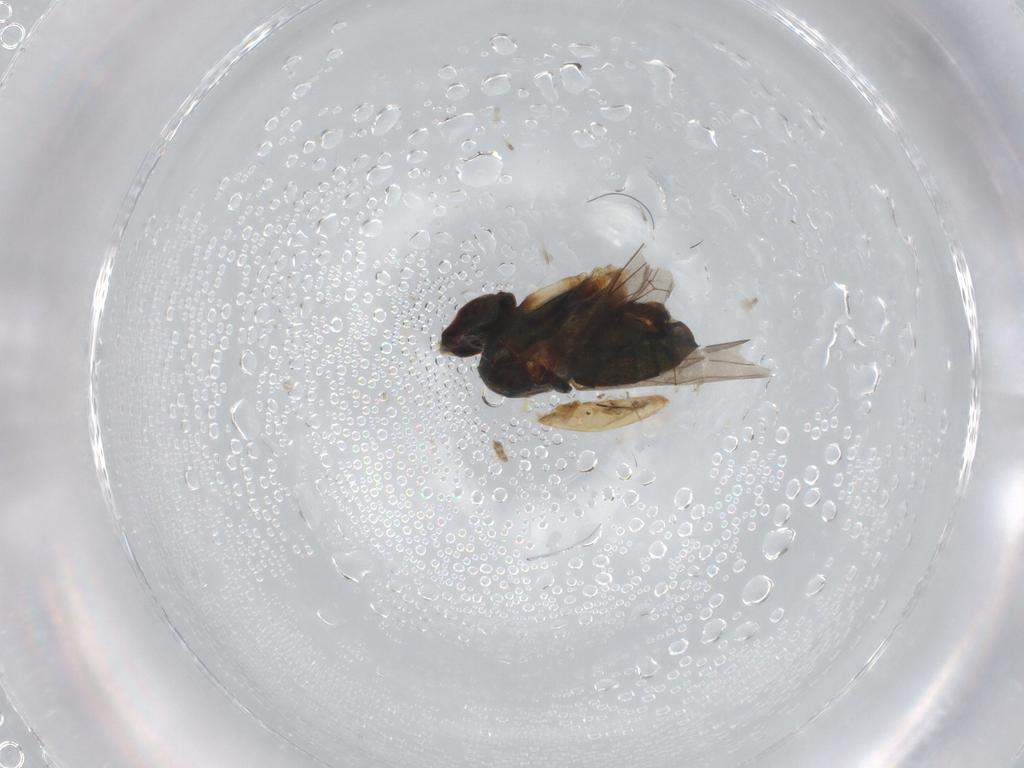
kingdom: Animalia
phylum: Arthropoda
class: Insecta
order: Diptera
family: Dolichopodidae
